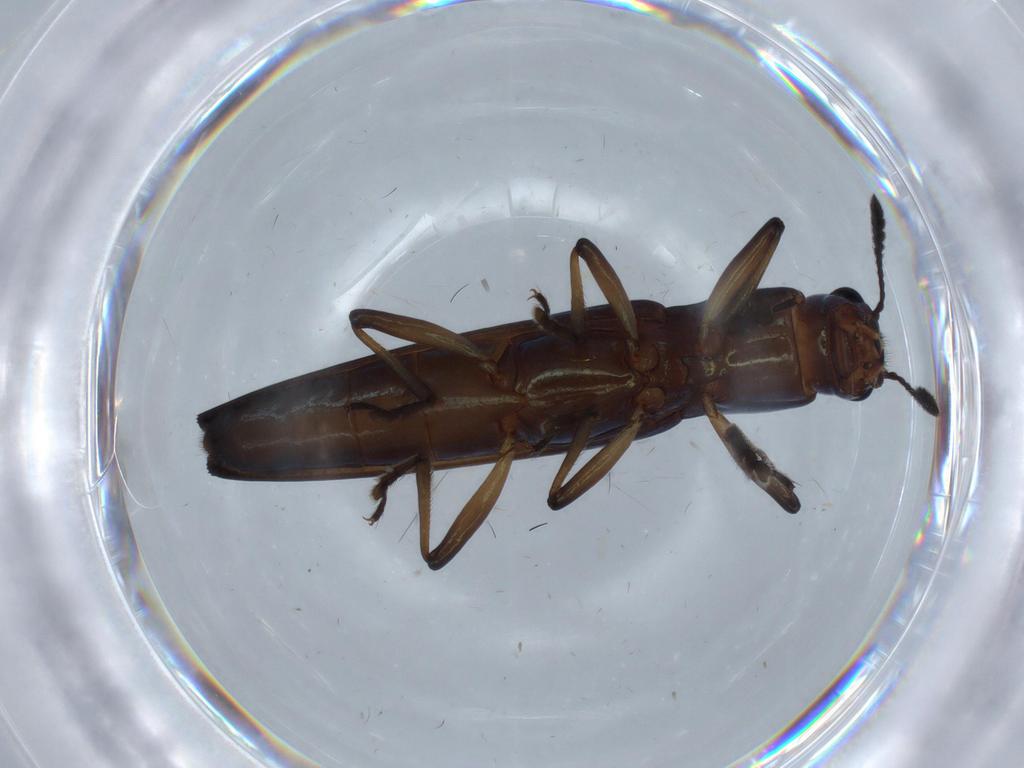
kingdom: Animalia
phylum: Arthropoda
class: Insecta
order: Coleoptera
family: Erotylidae
